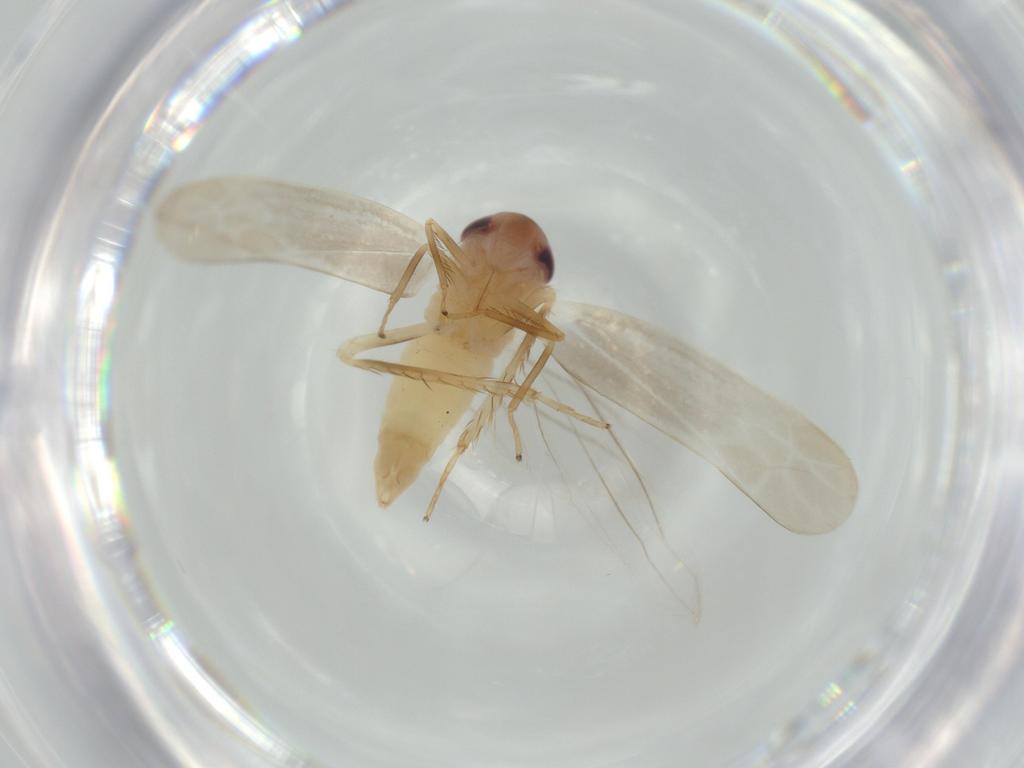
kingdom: Animalia
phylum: Arthropoda
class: Insecta
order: Hemiptera
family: Cicadellidae
